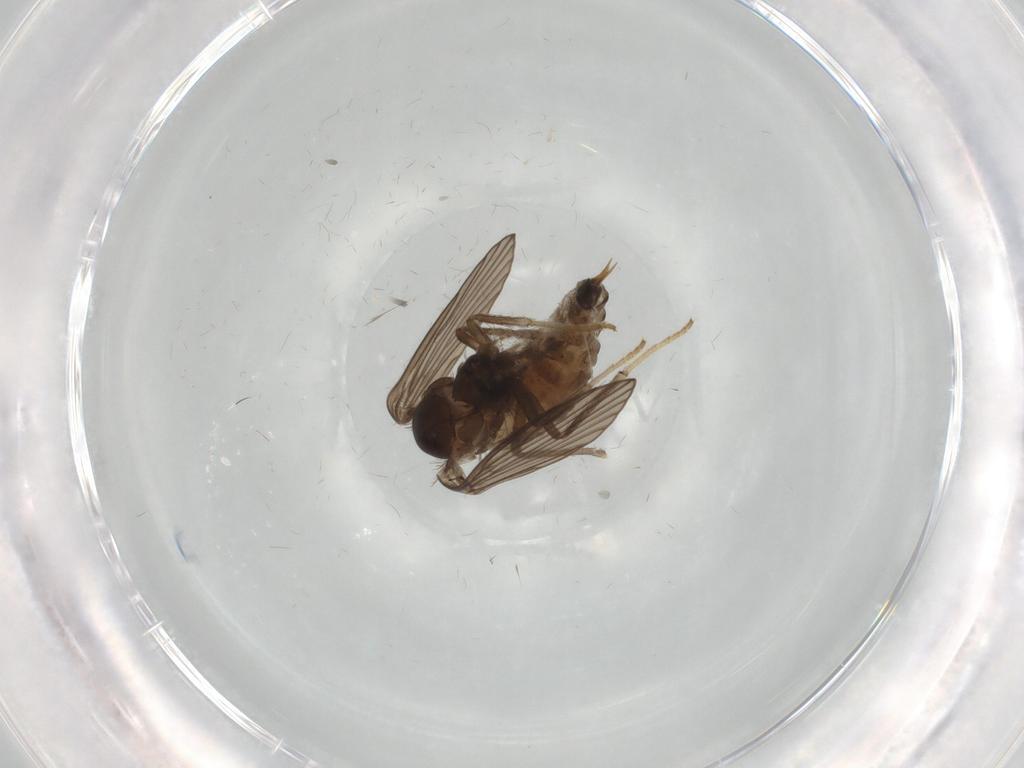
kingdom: Animalia
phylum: Arthropoda
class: Insecta
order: Diptera
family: Psychodidae
